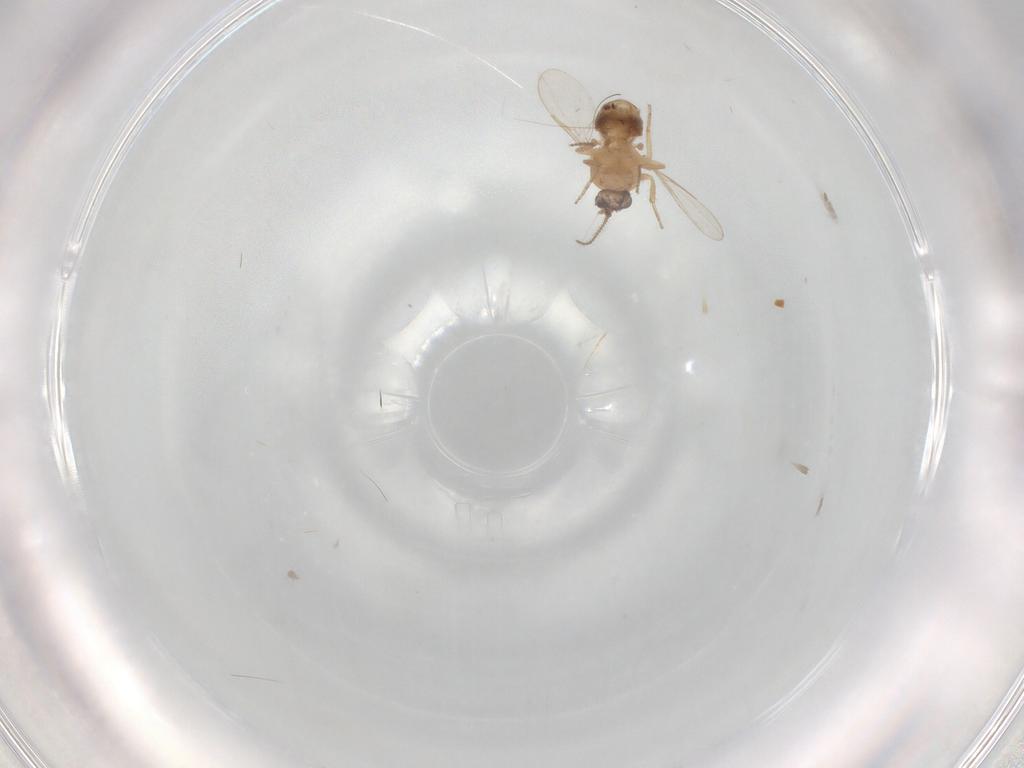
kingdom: Animalia
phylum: Arthropoda
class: Insecta
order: Diptera
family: Ceratopogonidae
